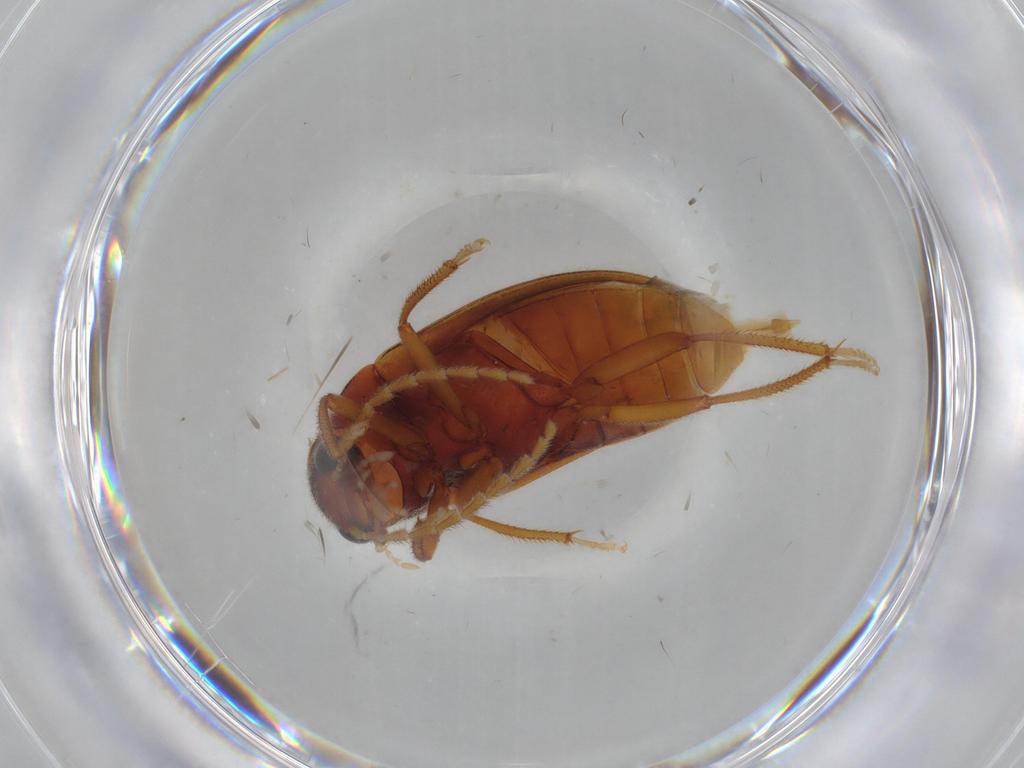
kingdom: Animalia
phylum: Arthropoda
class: Insecta
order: Coleoptera
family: Ptilodactylidae
